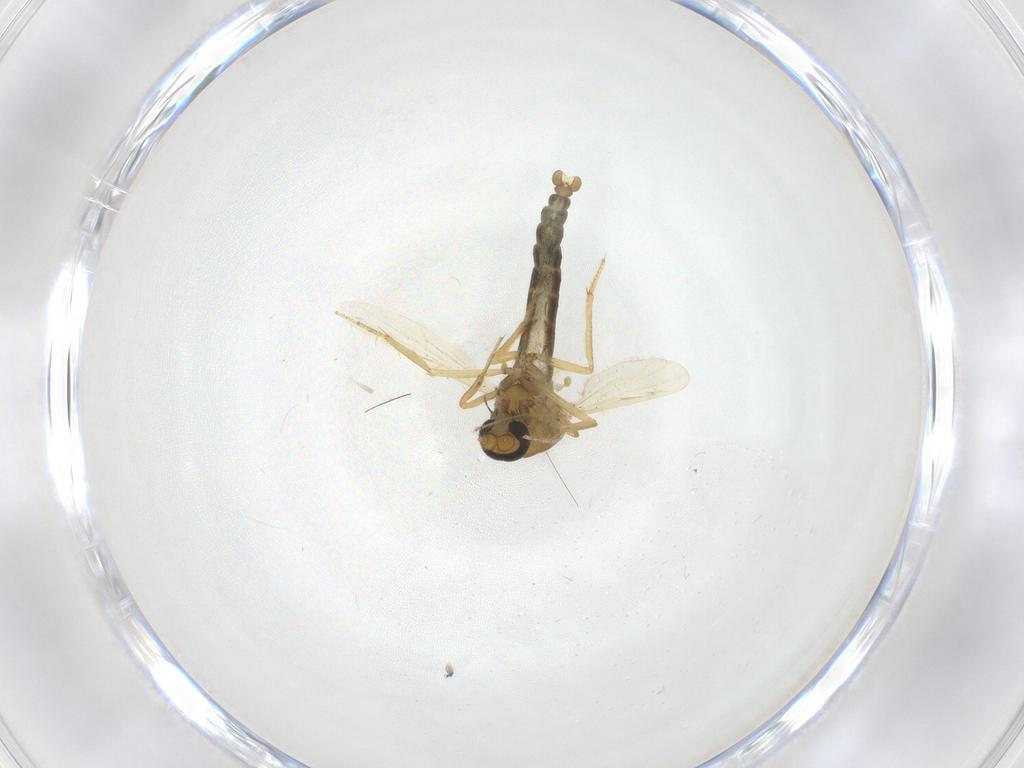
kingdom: Animalia
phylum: Arthropoda
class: Insecta
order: Diptera
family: Ceratopogonidae
